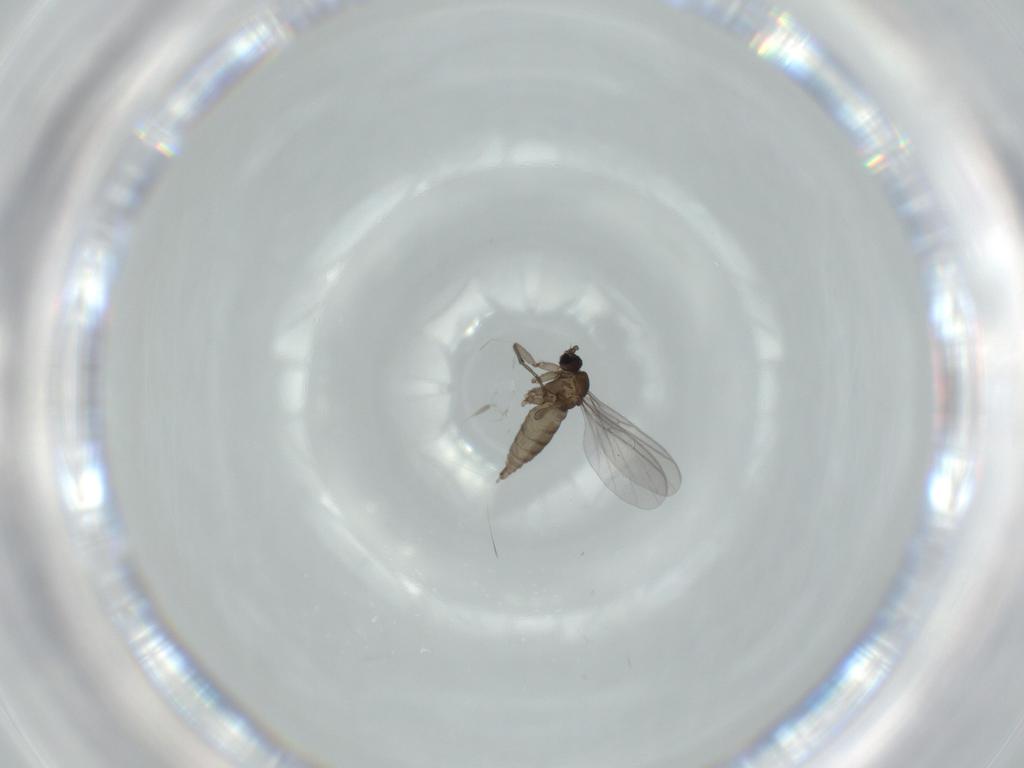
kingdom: Animalia
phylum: Arthropoda
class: Insecta
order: Diptera
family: Sciaridae
